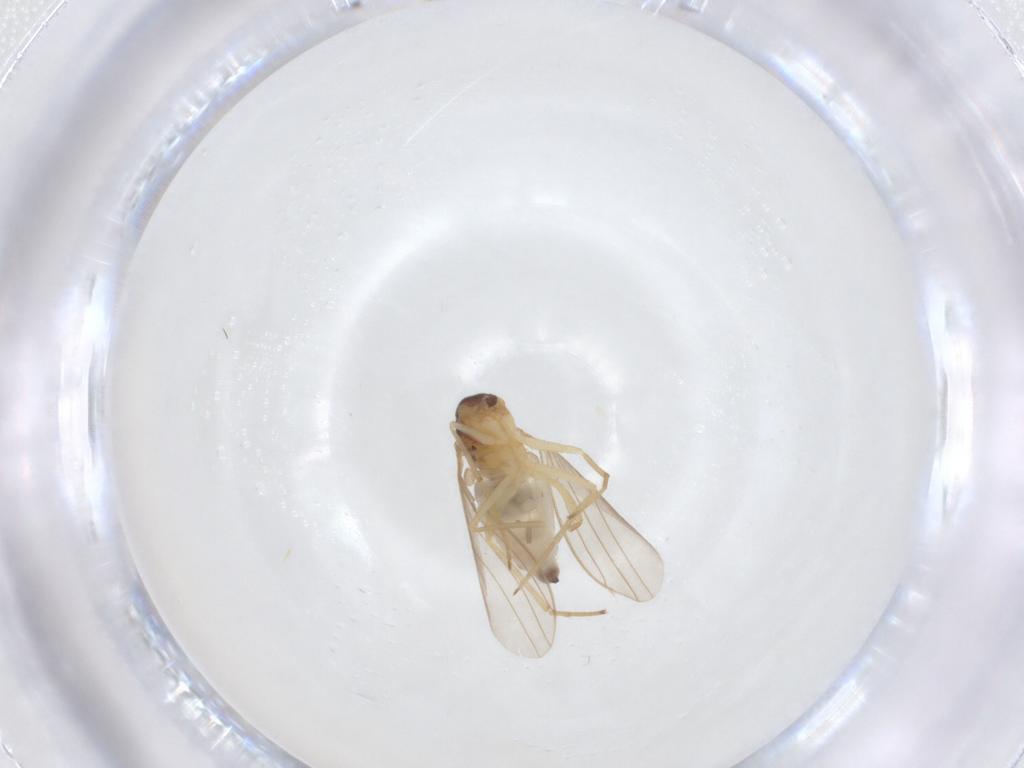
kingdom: Animalia
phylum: Arthropoda
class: Insecta
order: Diptera
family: Dolichopodidae
